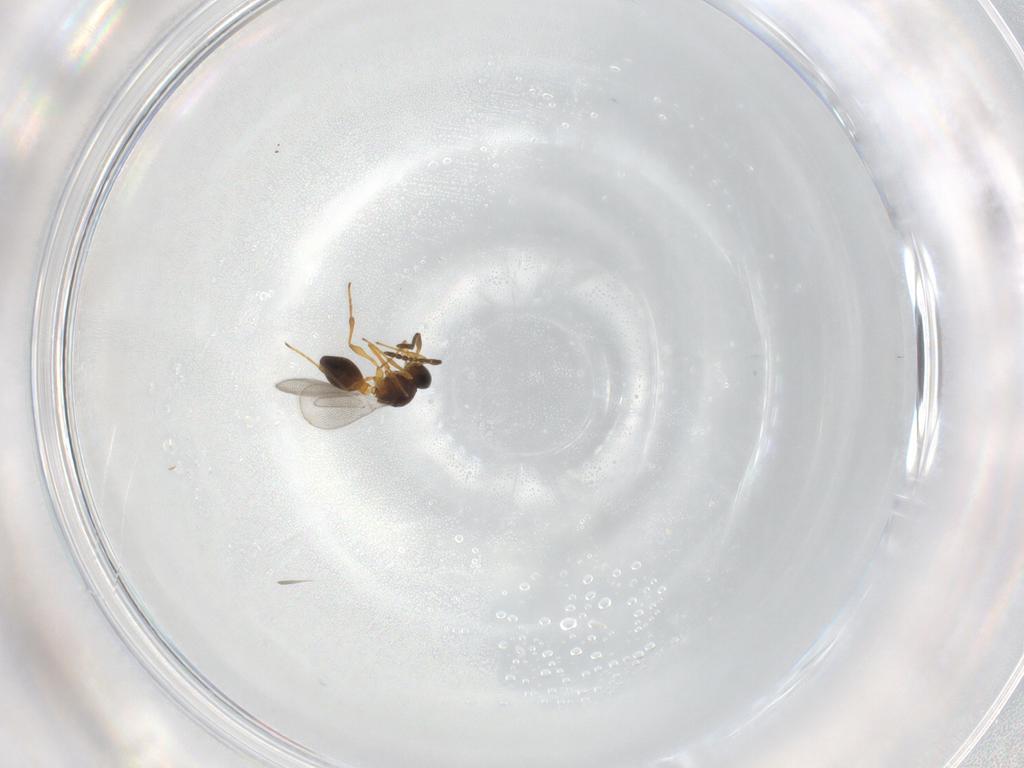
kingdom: Animalia
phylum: Arthropoda
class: Insecta
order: Hymenoptera
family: Platygastridae
